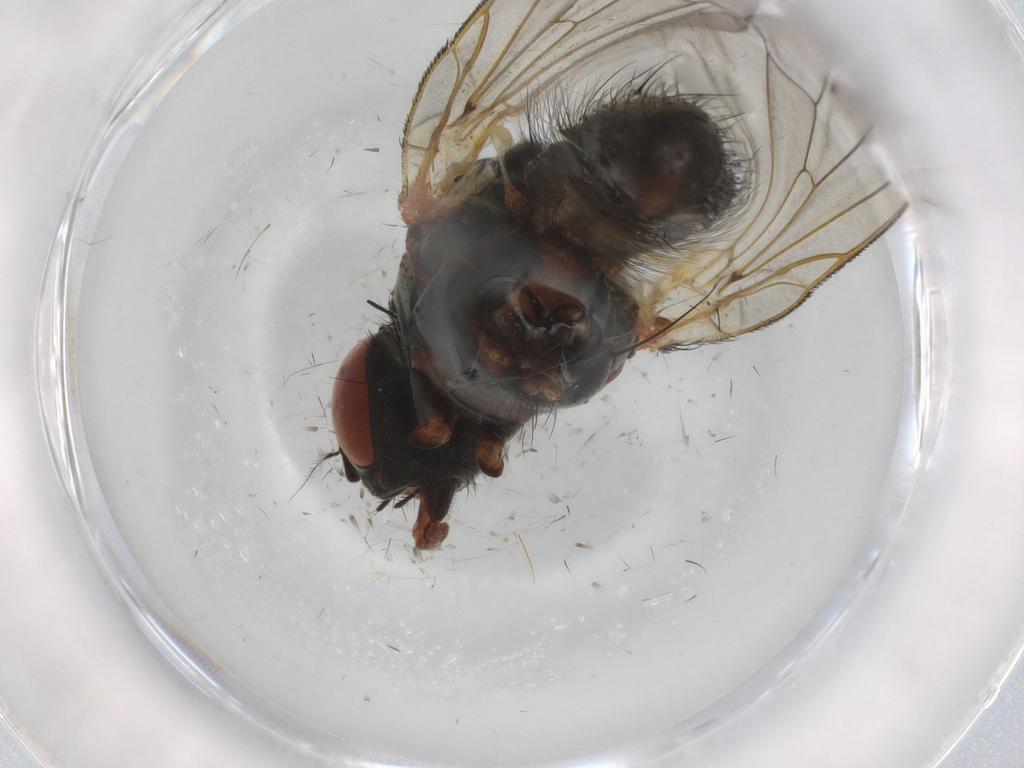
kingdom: Animalia
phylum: Arthropoda
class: Insecta
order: Diptera
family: Anthomyiidae
